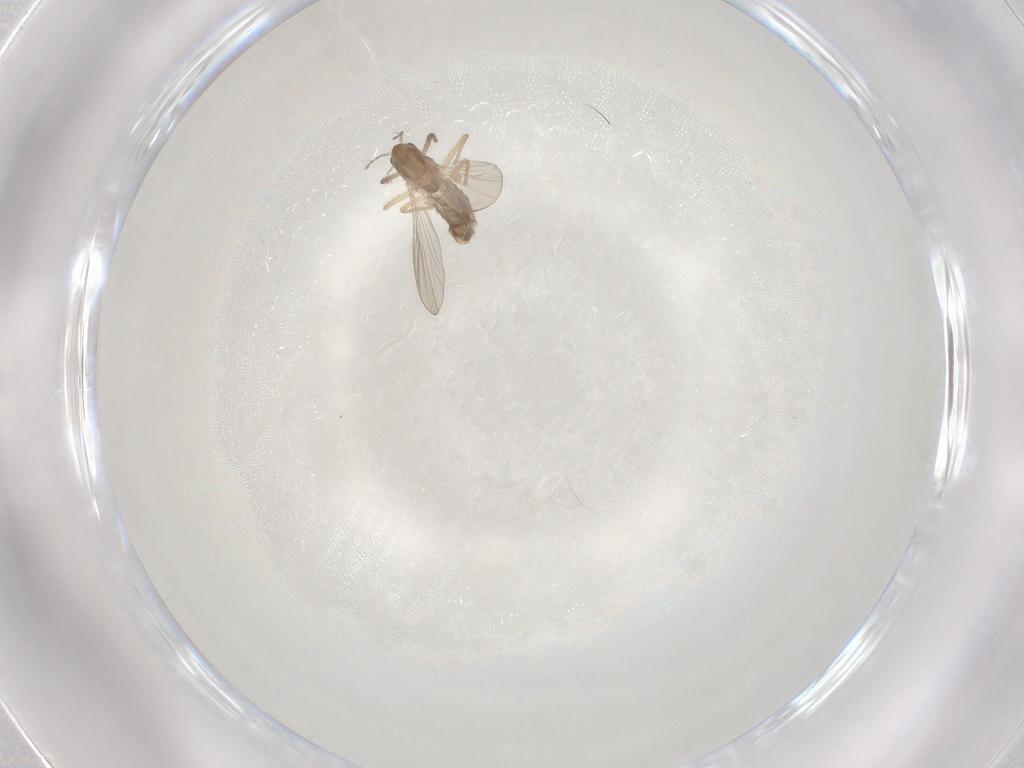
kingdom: Animalia
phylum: Arthropoda
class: Insecta
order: Diptera
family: Chironomidae
